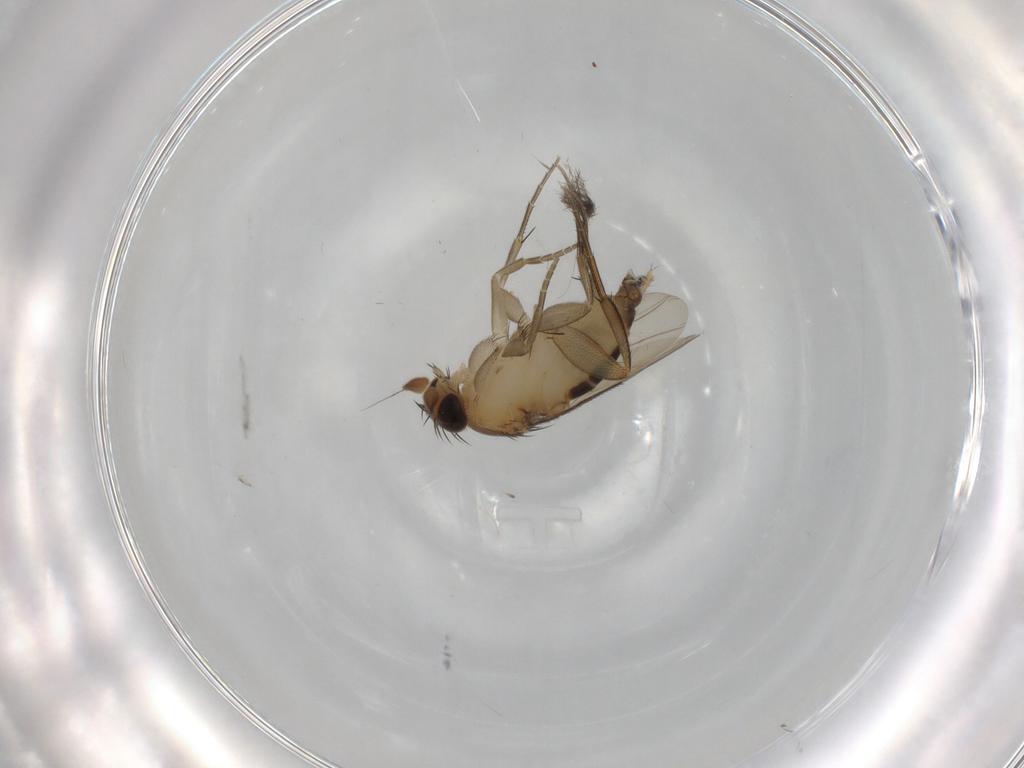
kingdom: Animalia
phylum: Arthropoda
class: Insecta
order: Diptera
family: Phoridae
